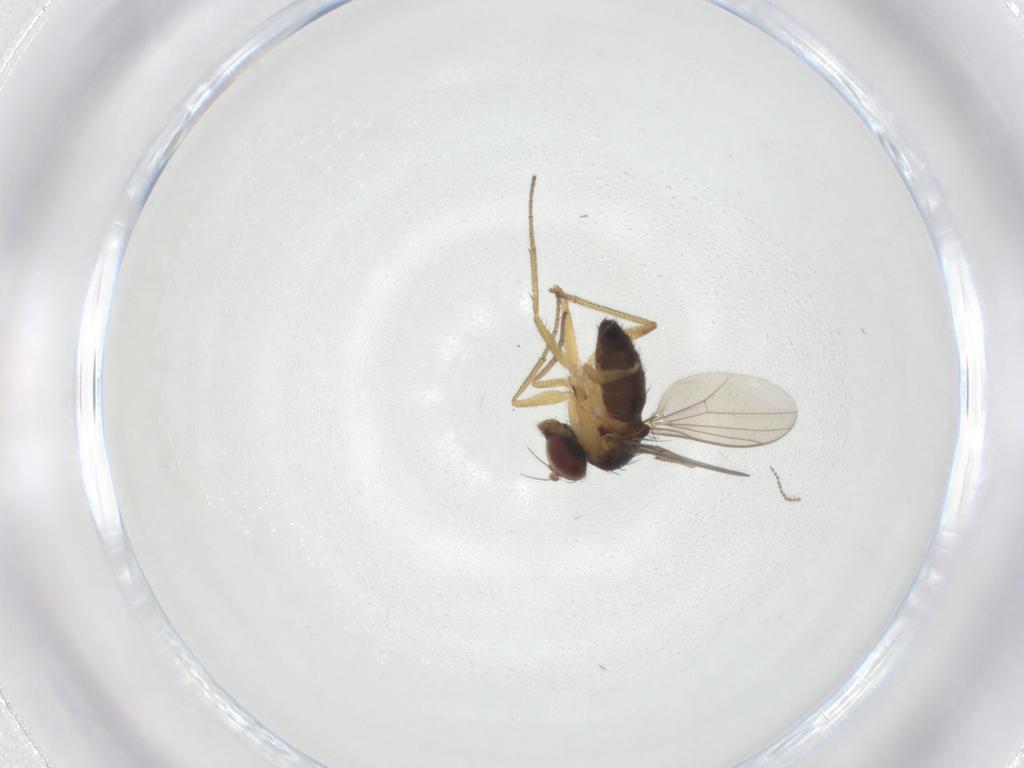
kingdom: Animalia
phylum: Arthropoda
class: Insecta
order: Diptera
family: Dolichopodidae
